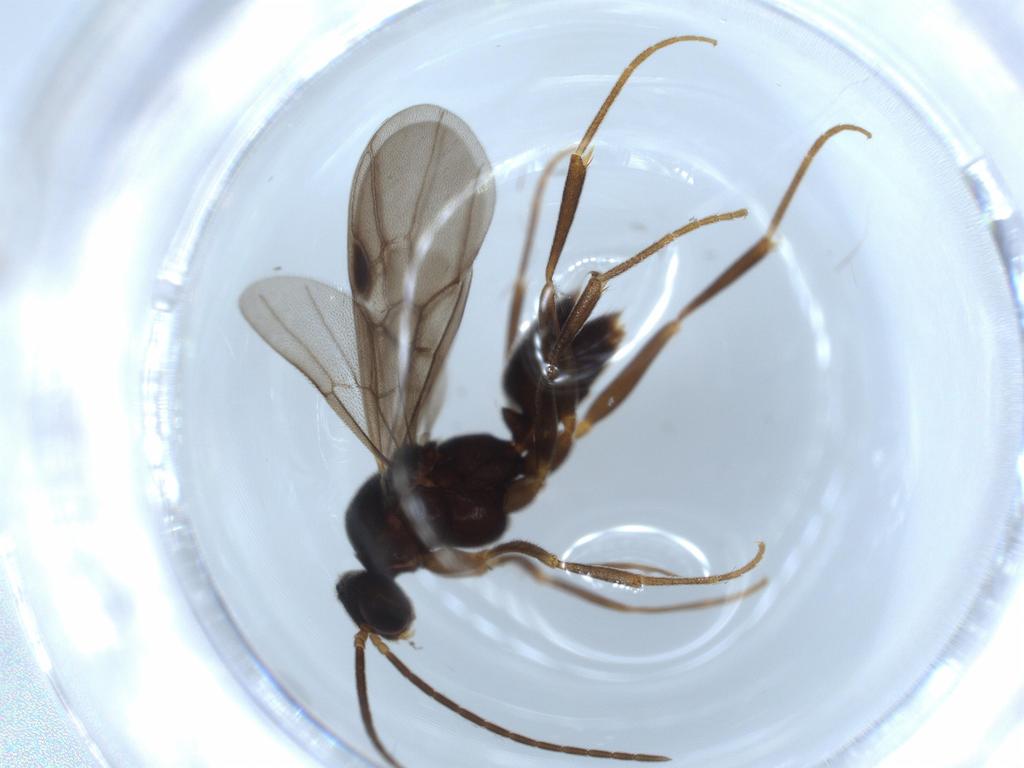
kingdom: Animalia
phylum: Arthropoda
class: Insecta
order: Hymenoptera
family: Formicidae
